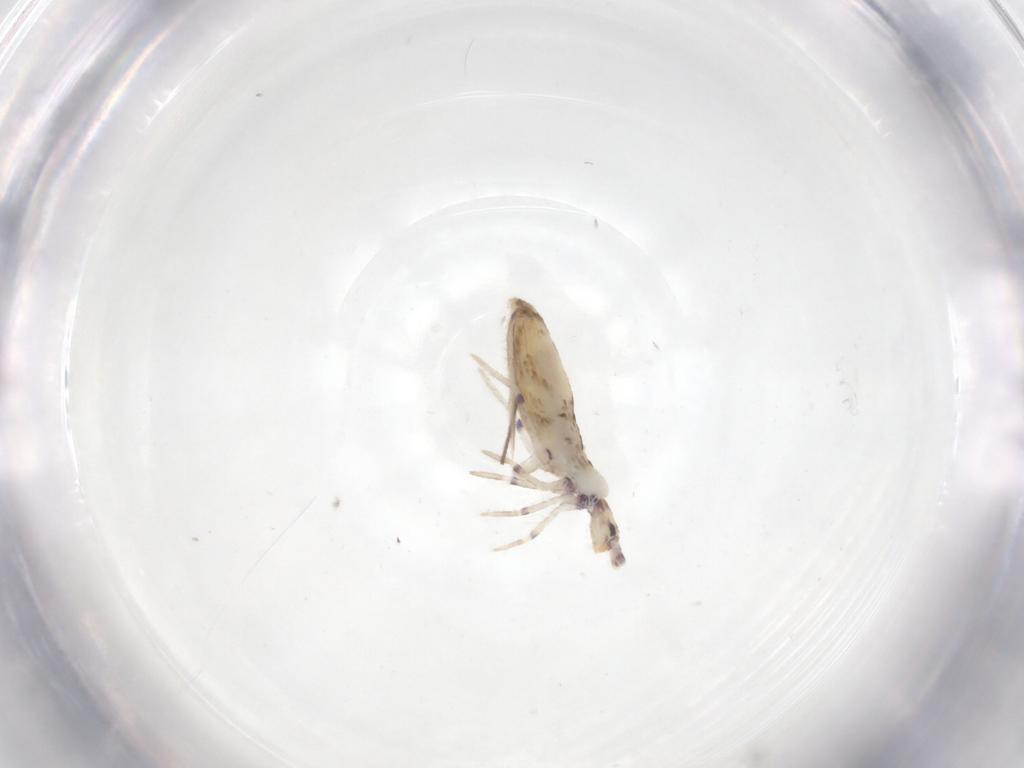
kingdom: Animalia
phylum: Arthropoda
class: Collembola
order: Entomobryomorpha
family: Entomobryidae
